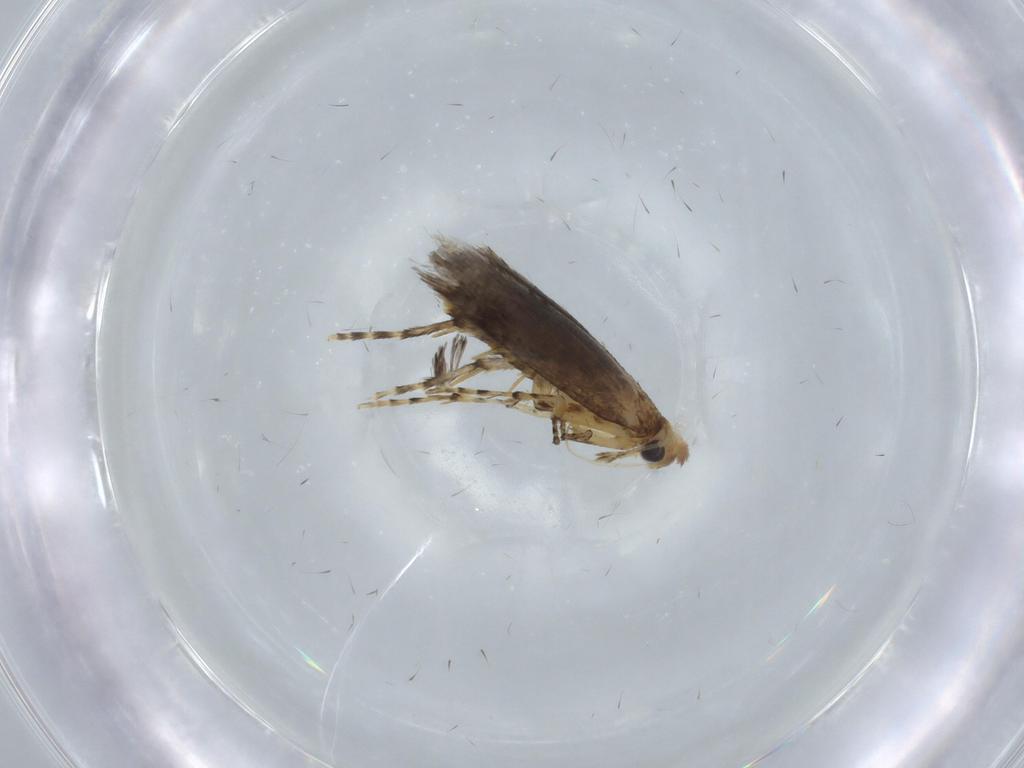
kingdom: Animalia
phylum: Arthropoda
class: Insecta
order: Lepidoptera
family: Argyresthiidae
